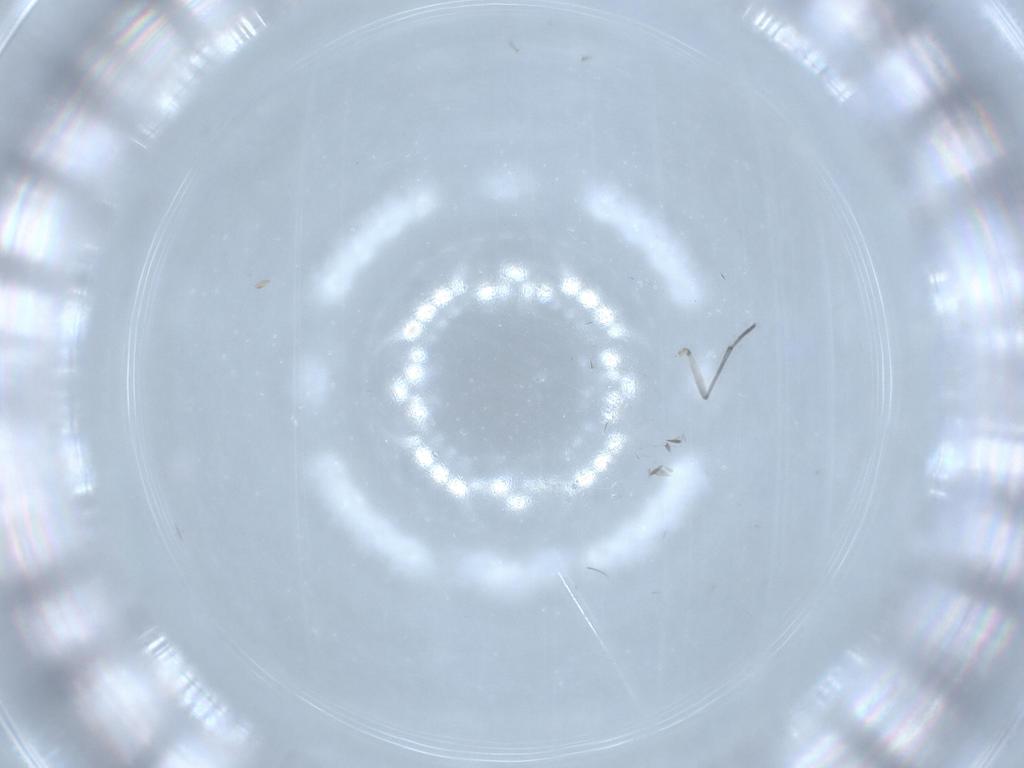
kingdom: Animalia
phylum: Arthropoda
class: Insecta
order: Diptera
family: Cecidomyiidae
